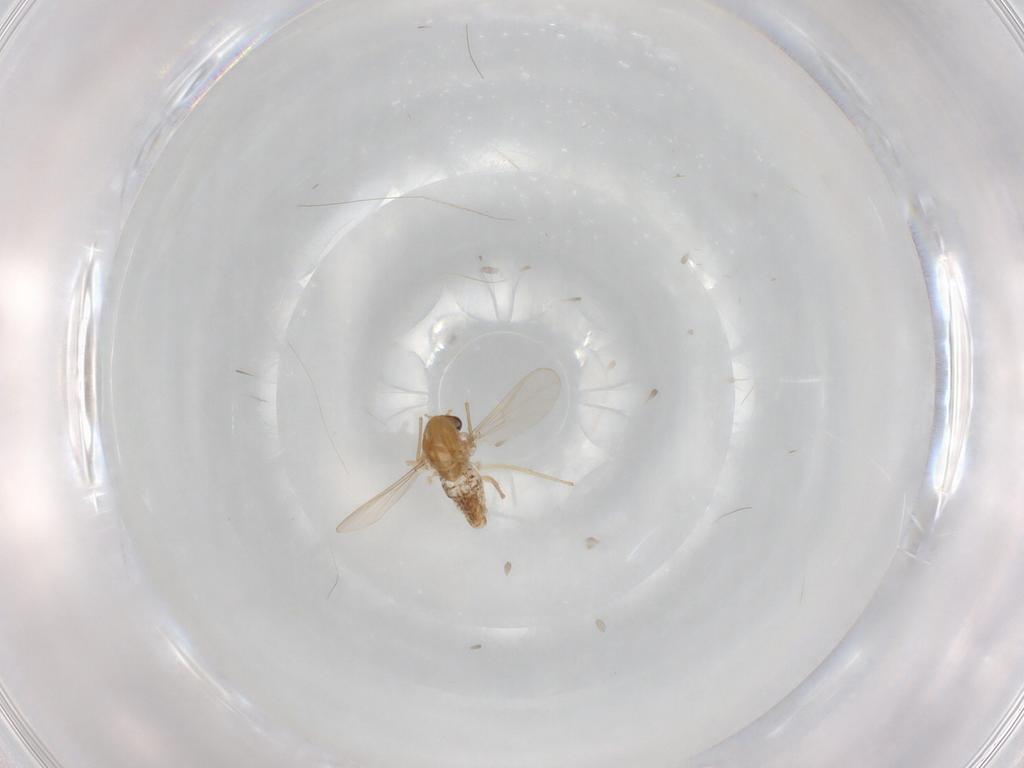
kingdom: Animalia
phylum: Arthropoda
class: Insecta
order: Diptera
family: Chironomidae
